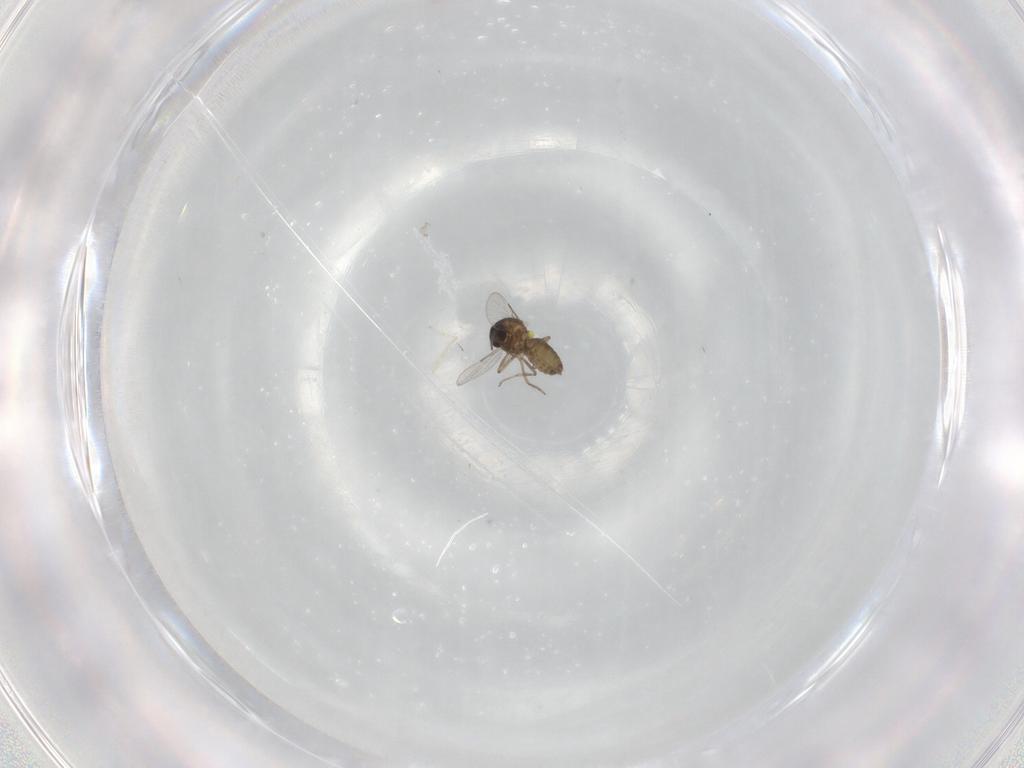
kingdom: Animalia
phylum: Arthropoda
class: Insecta
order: Diptera
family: Ceratopogonidae
